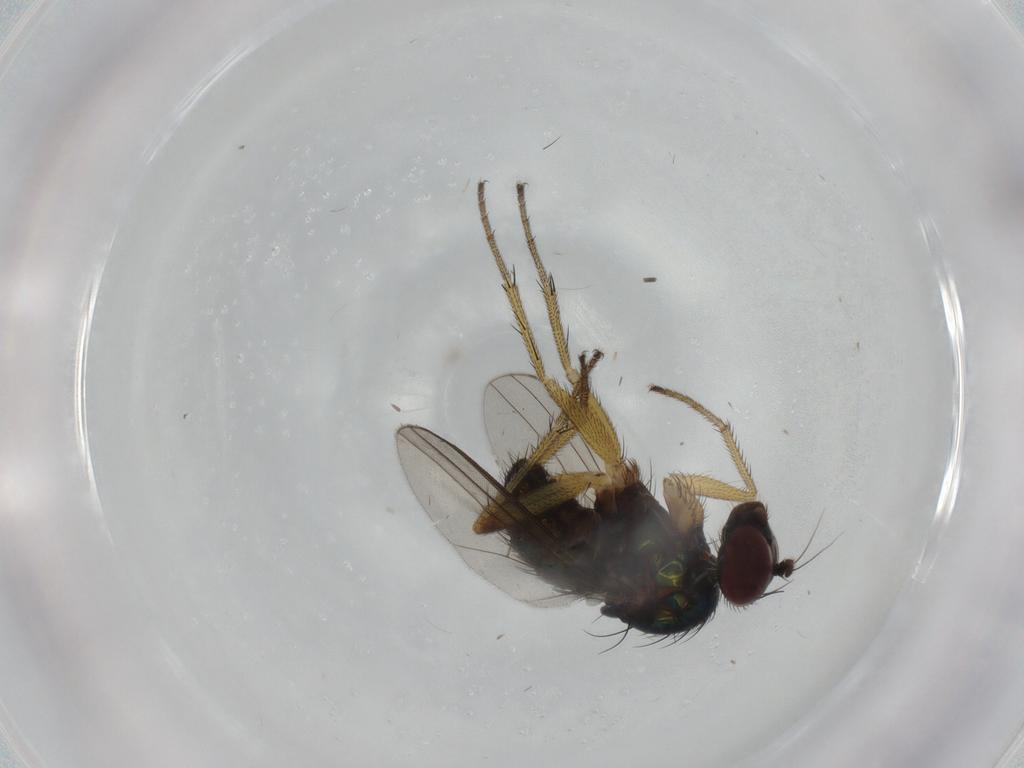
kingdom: Animalia
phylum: Arthropoda
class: Insecta
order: Diptera
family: Dolichopodidae
